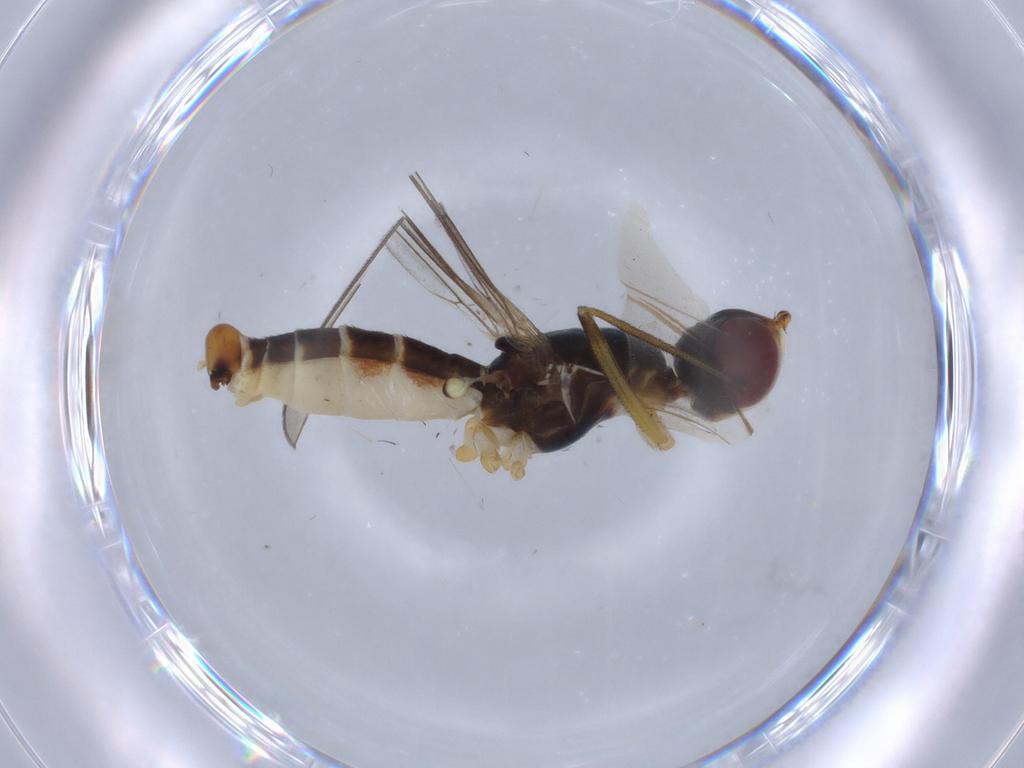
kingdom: Animalia
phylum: Arthropoda
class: Insecta
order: Diptera
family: Micropezidae
